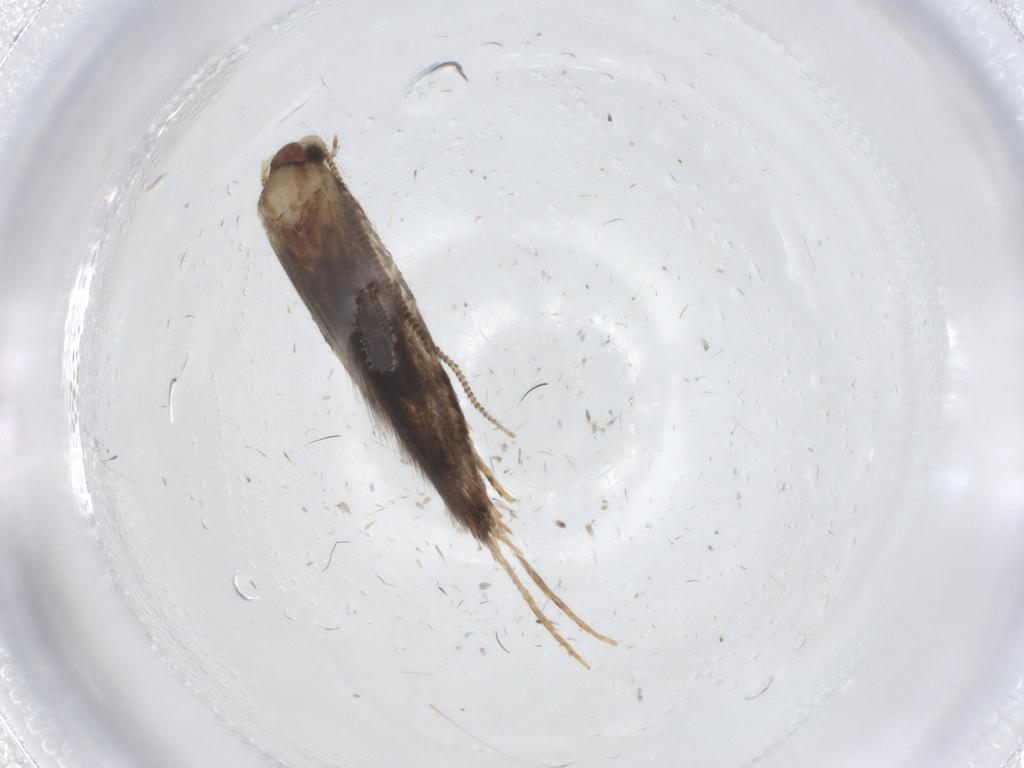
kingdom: Animalia
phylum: Arthropoda
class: Insecta
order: Lepidoptera
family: Tineidae
